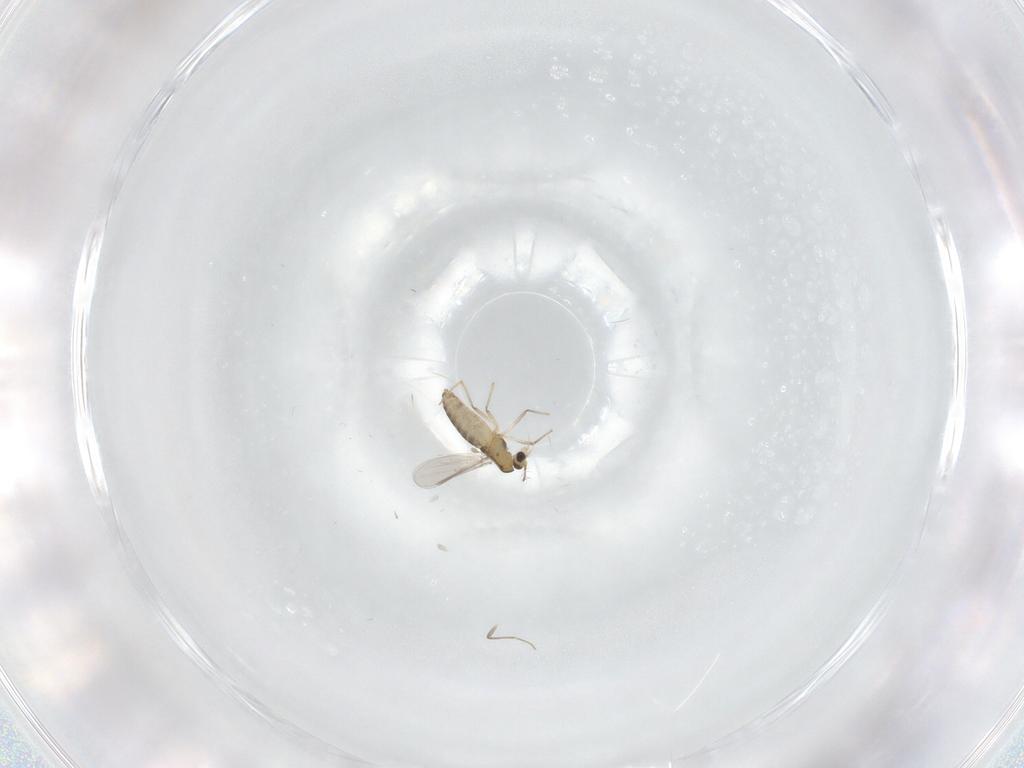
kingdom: Animalia
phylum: Arthropoda
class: Insecta
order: Diptera
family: Chironomidae
